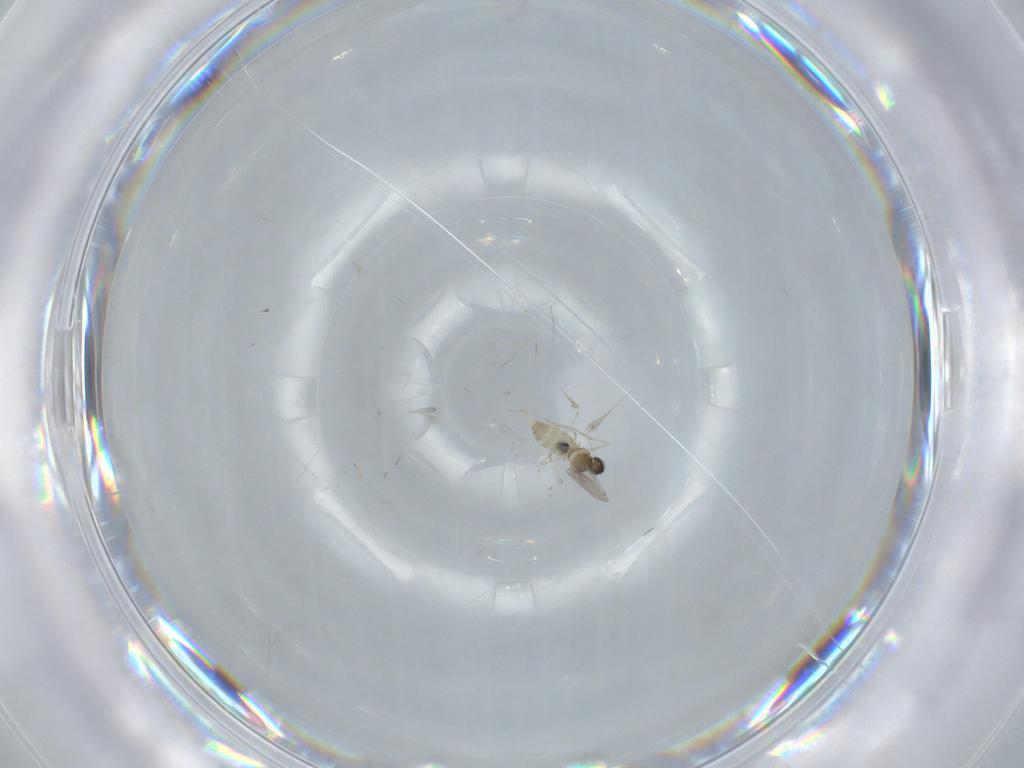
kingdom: Animalia
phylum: Arthropoda
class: Insecta
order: Diptera
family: Cecidomyiidae
